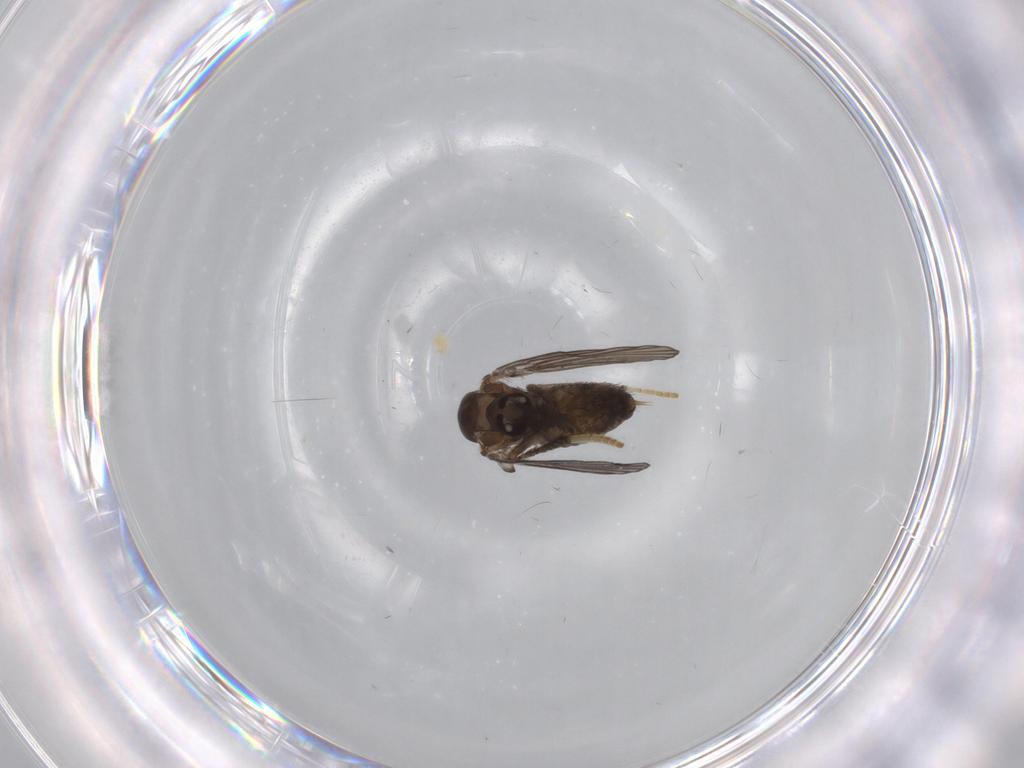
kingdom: Animalia
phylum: Arthropoda
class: Insecta
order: Diptera
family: Psychodidae
